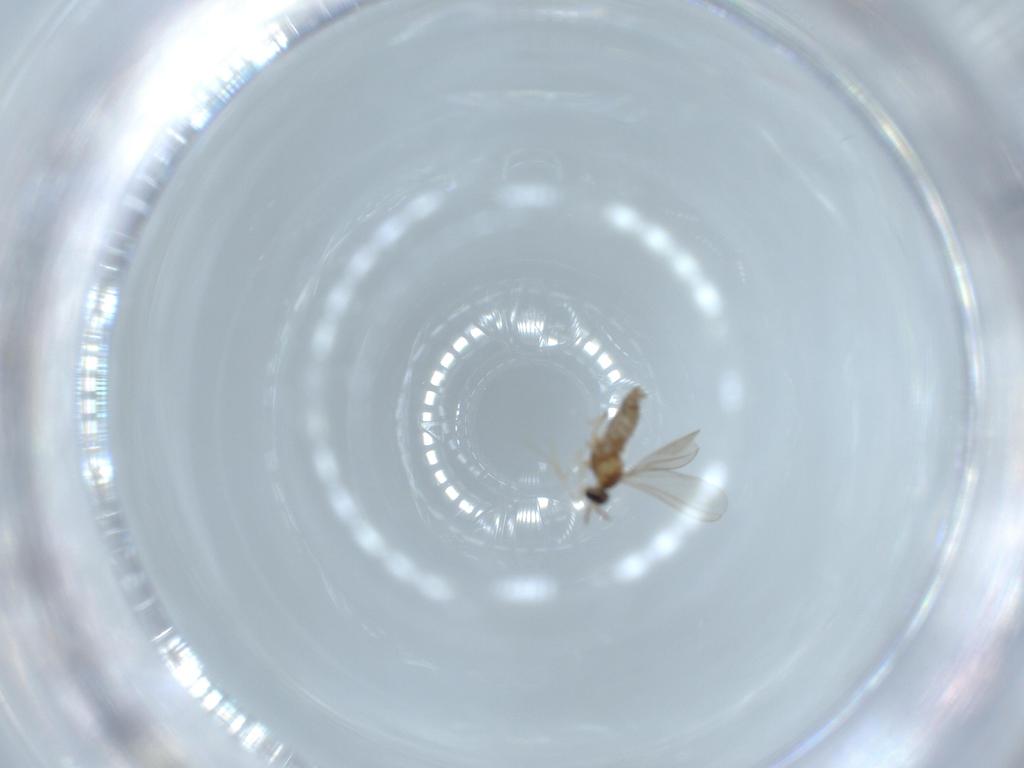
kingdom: Animalia
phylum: Arthropoda
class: Insecta
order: Diptera
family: Cecidomyiidae
